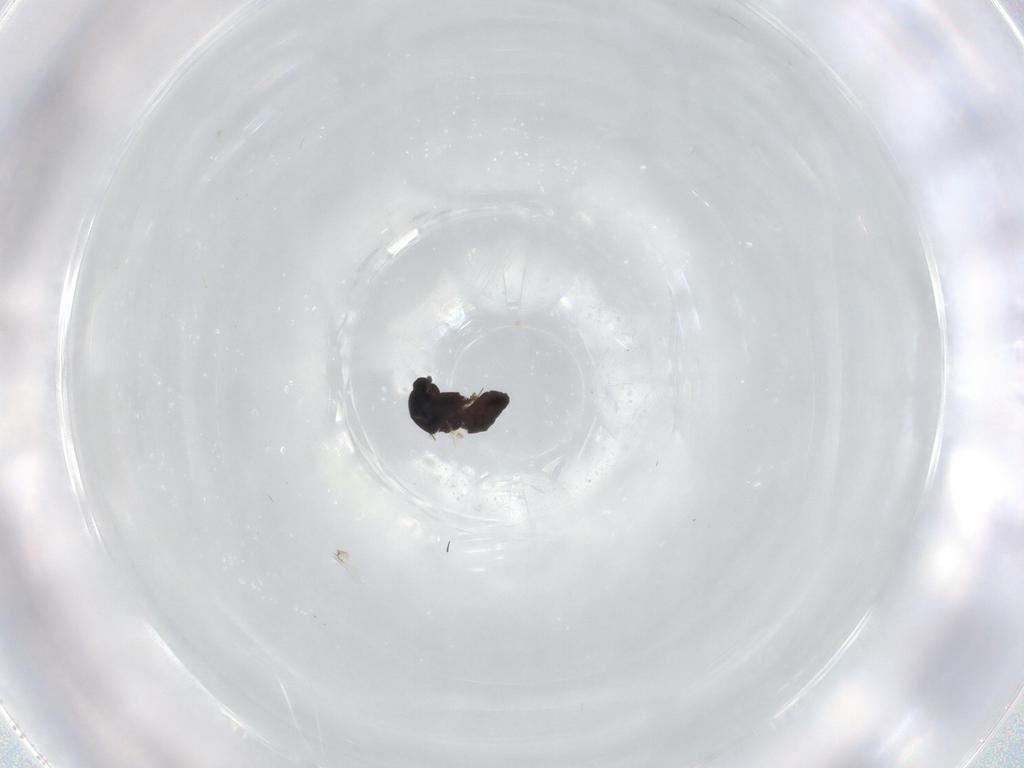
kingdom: Animalia
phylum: Arthropoda
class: Insecta
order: Diptera
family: Ceratopogonidae
